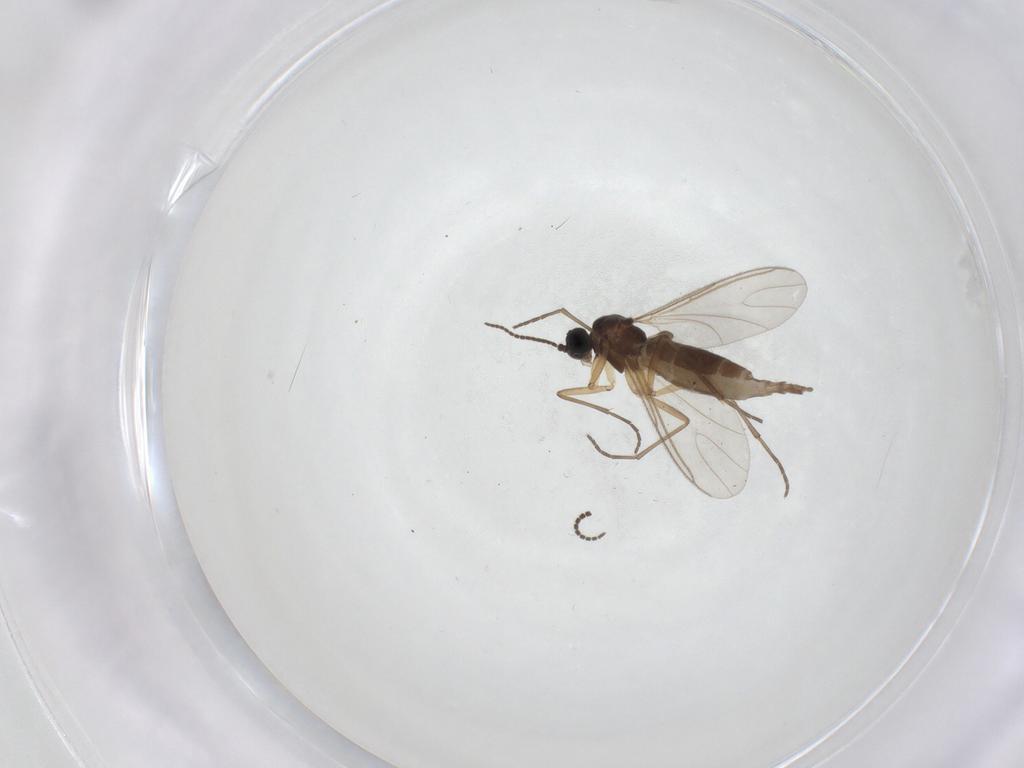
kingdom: Animalia
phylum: Arthropoda
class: Insecta
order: Diptera
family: Sciaridae
